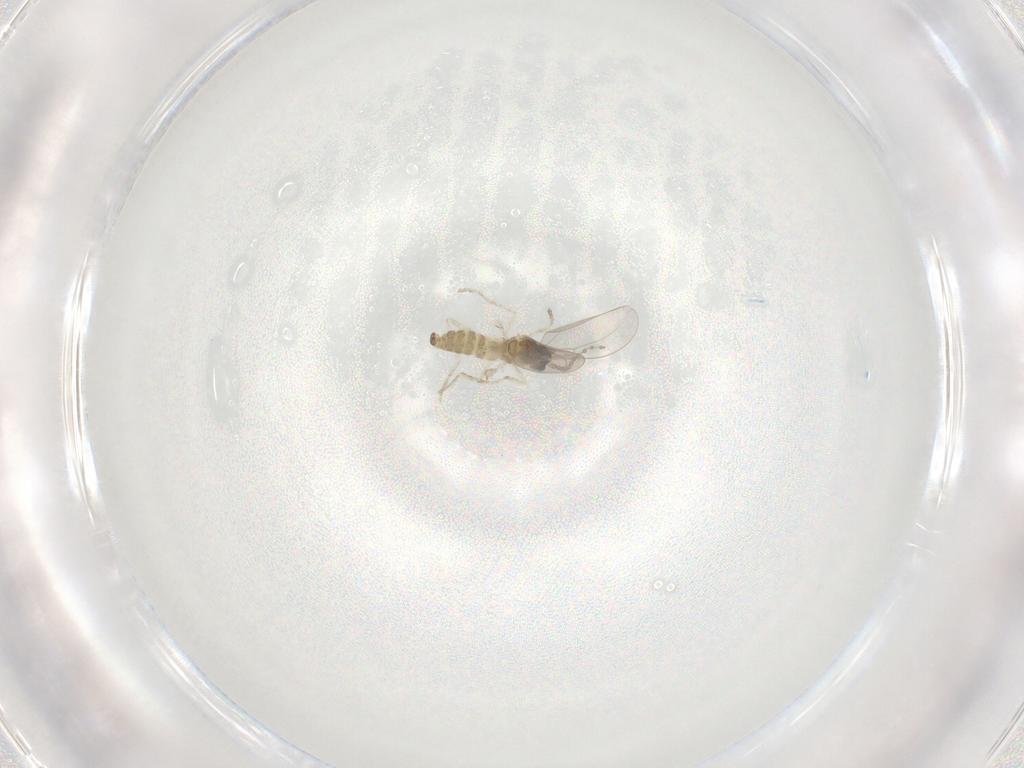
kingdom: Animalia
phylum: Arthropoda
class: Insecta
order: Diptera
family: Cecidomyiidae
